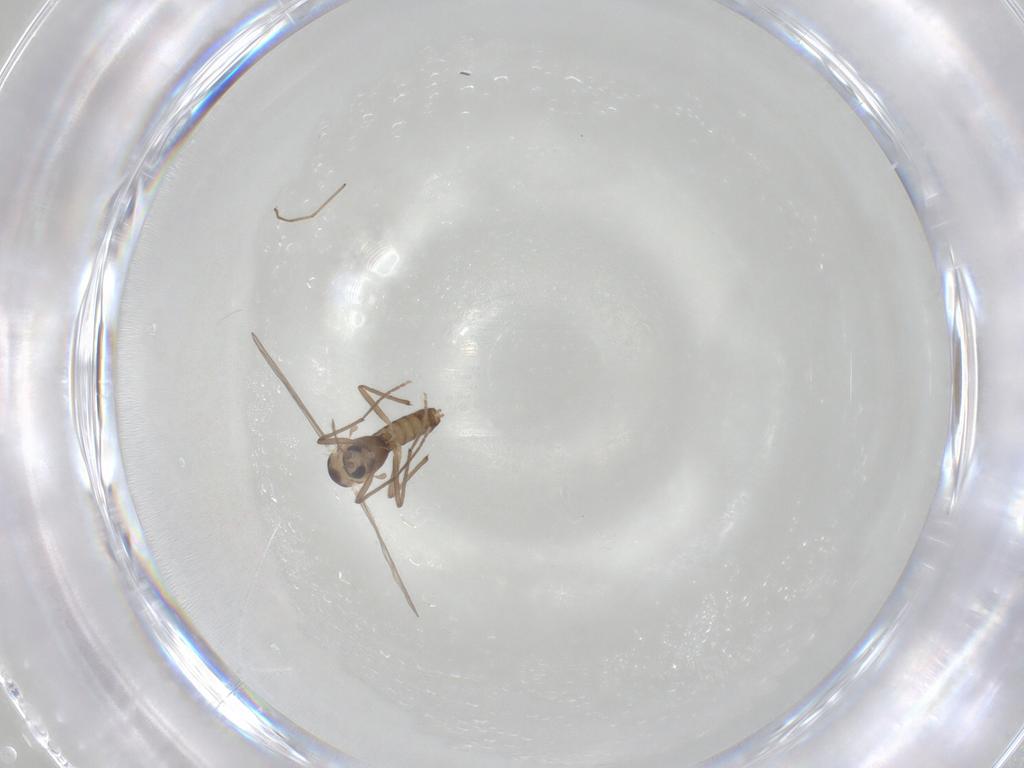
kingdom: Animalia
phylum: Arthropoda
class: Insecta
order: Diptera
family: Chironomidae
